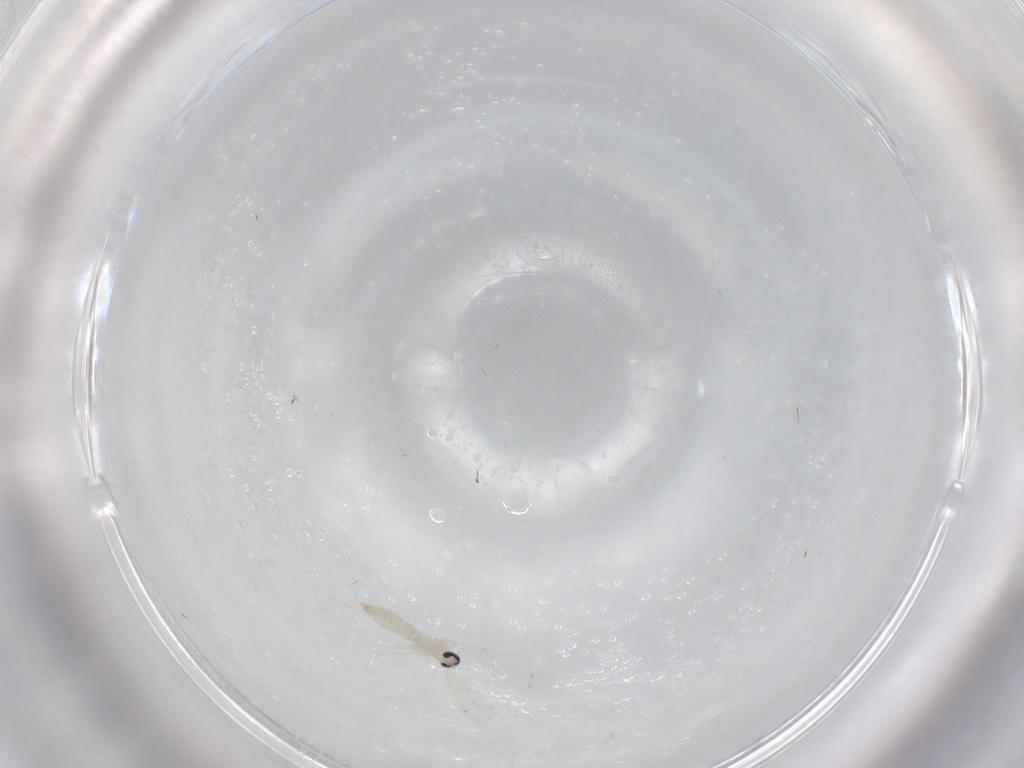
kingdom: Animalia
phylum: Arthropoda
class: Insecta
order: Diptera
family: Cecidomyiidae
